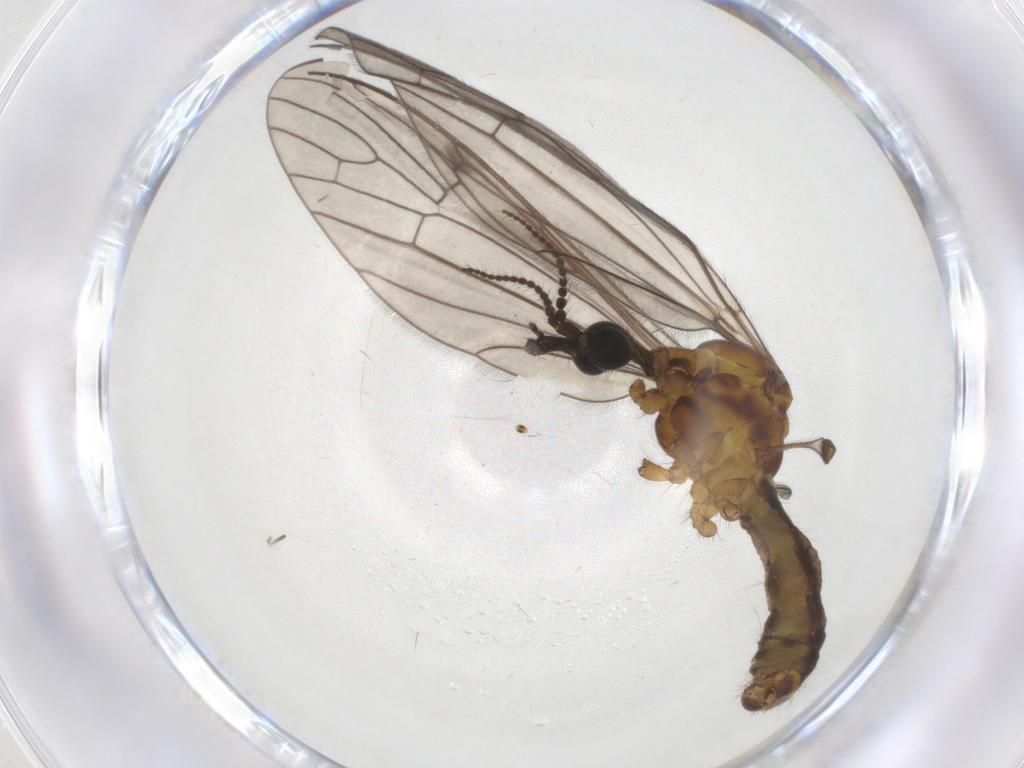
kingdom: Animalia
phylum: Arthropoda
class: Insecta
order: Diptera
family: Limoniidae
